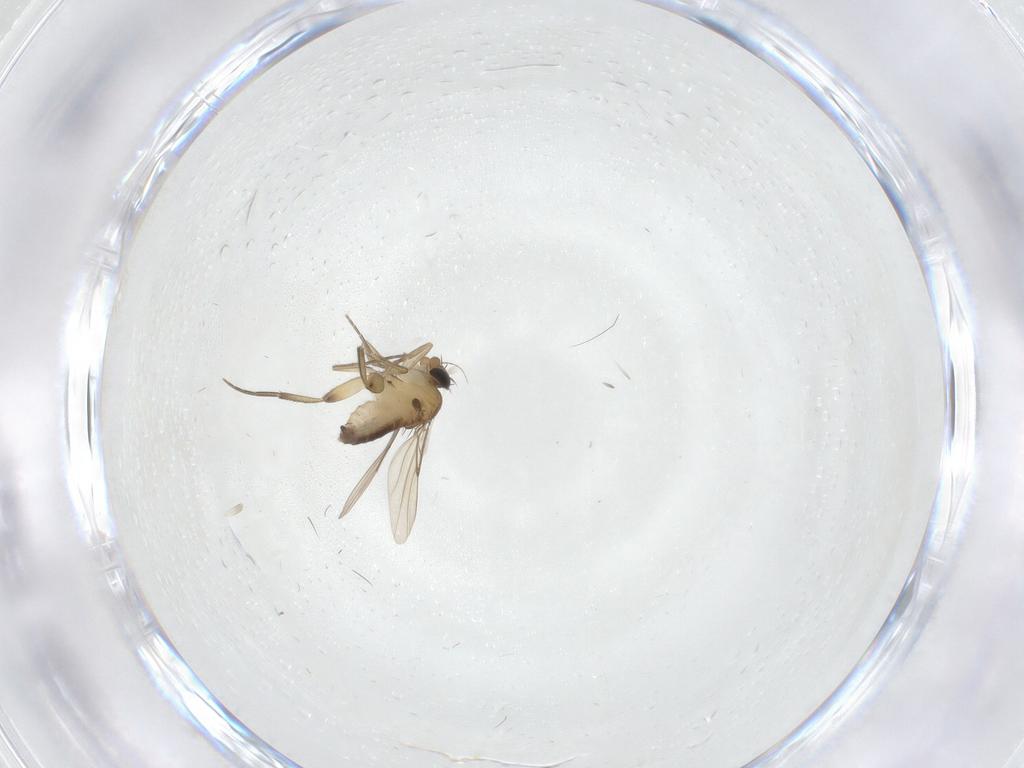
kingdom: Animalia
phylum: Arthropoda
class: Insecta
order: Diptera
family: Phoridae
